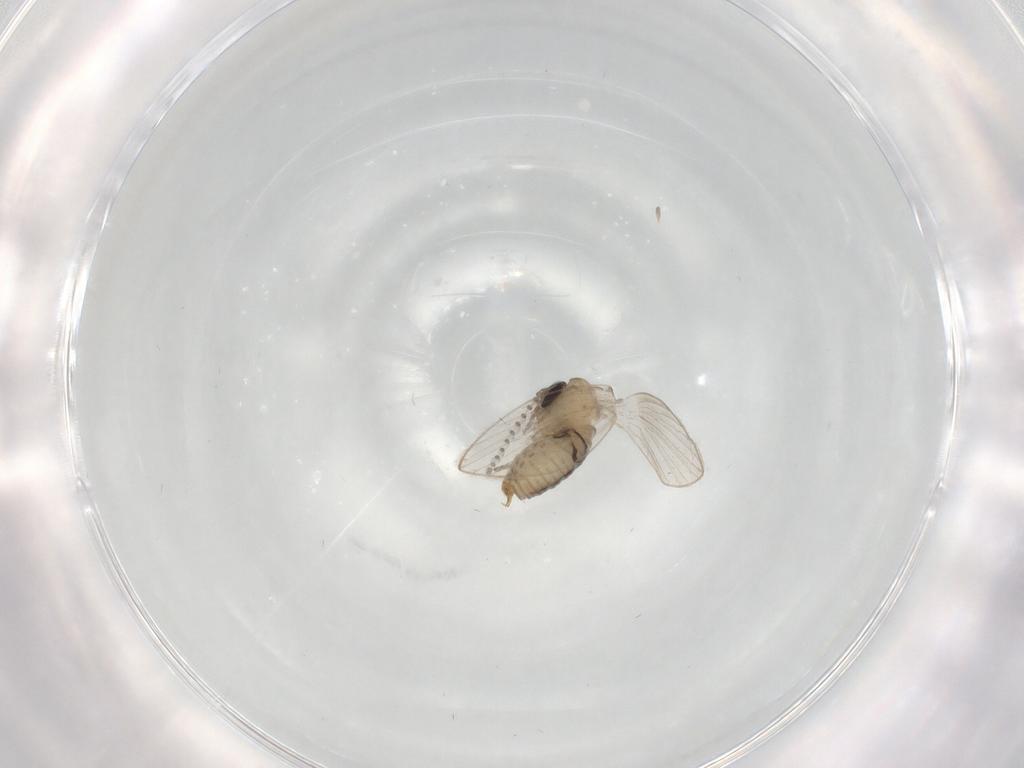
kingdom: Animalia
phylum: Arthropoda
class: Insecta
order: Diptera
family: Psychodidae
